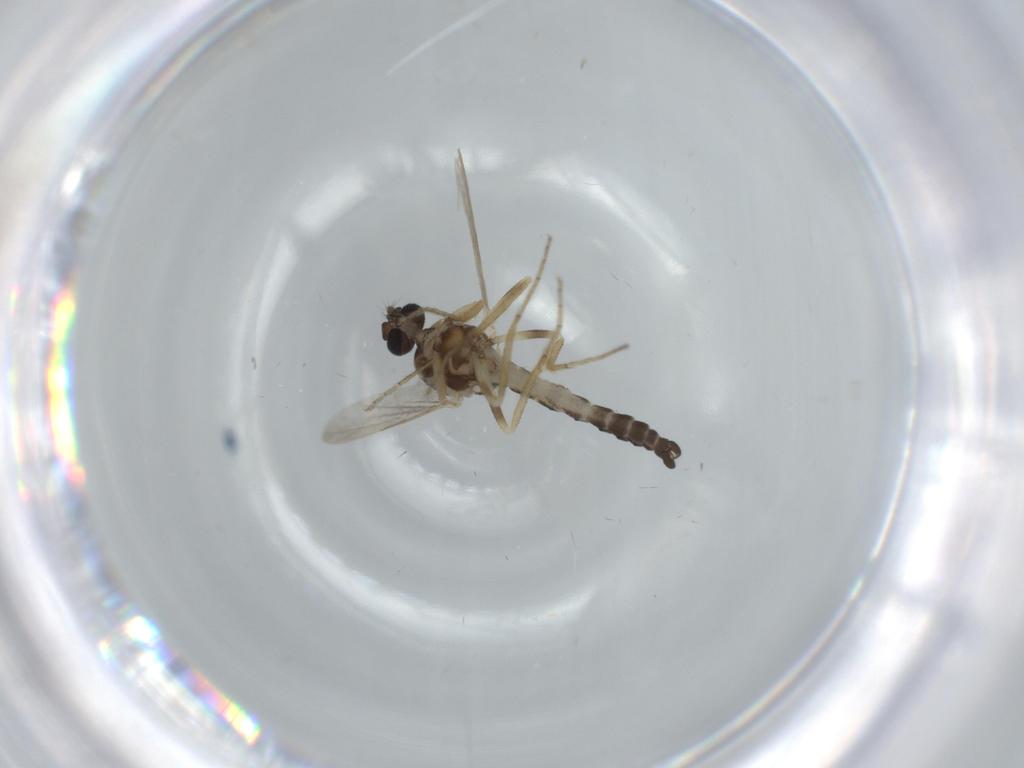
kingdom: Animalia
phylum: Arthropoda
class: Insecta
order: Diptera
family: Sciaridae
